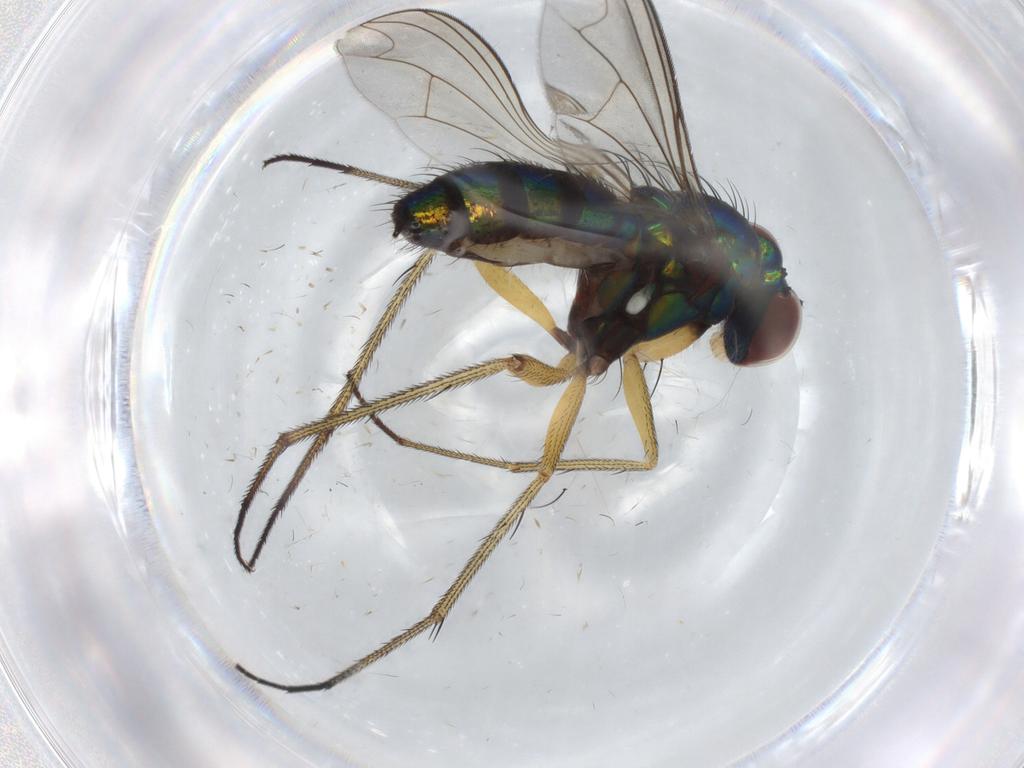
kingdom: Animalia
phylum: Arthropoda
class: Insecta
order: Diptera
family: Dolichopodidae
